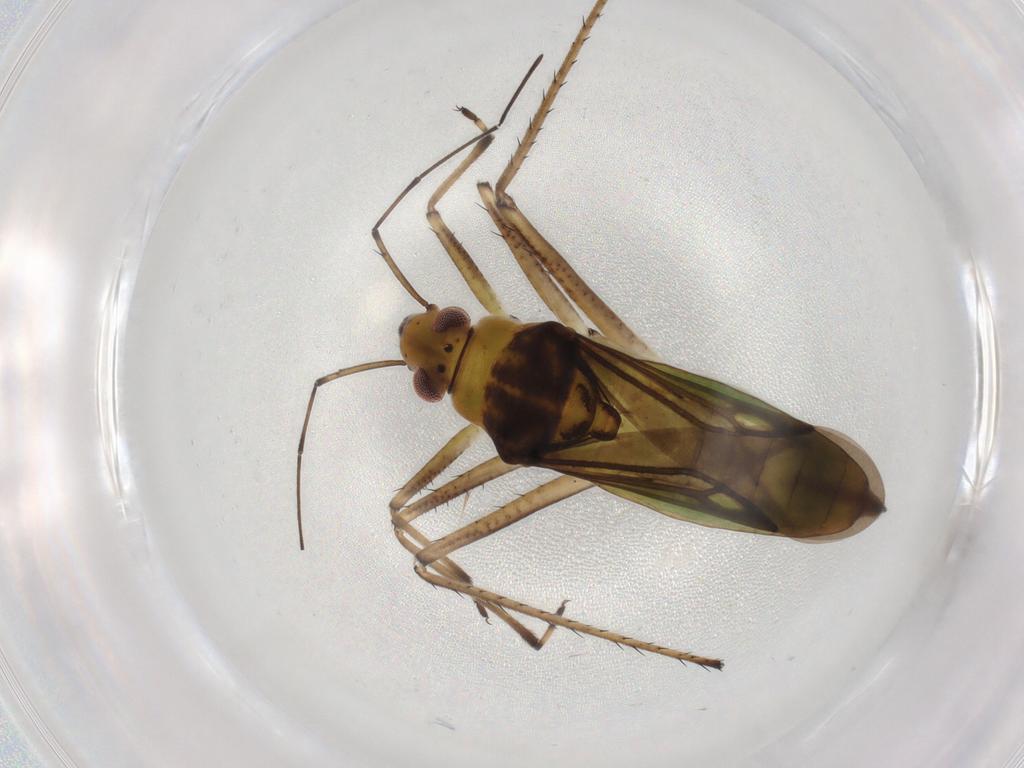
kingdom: Animalia
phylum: Arthropoda
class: Insecta
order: Hemiptera
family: Mesoveliidae
